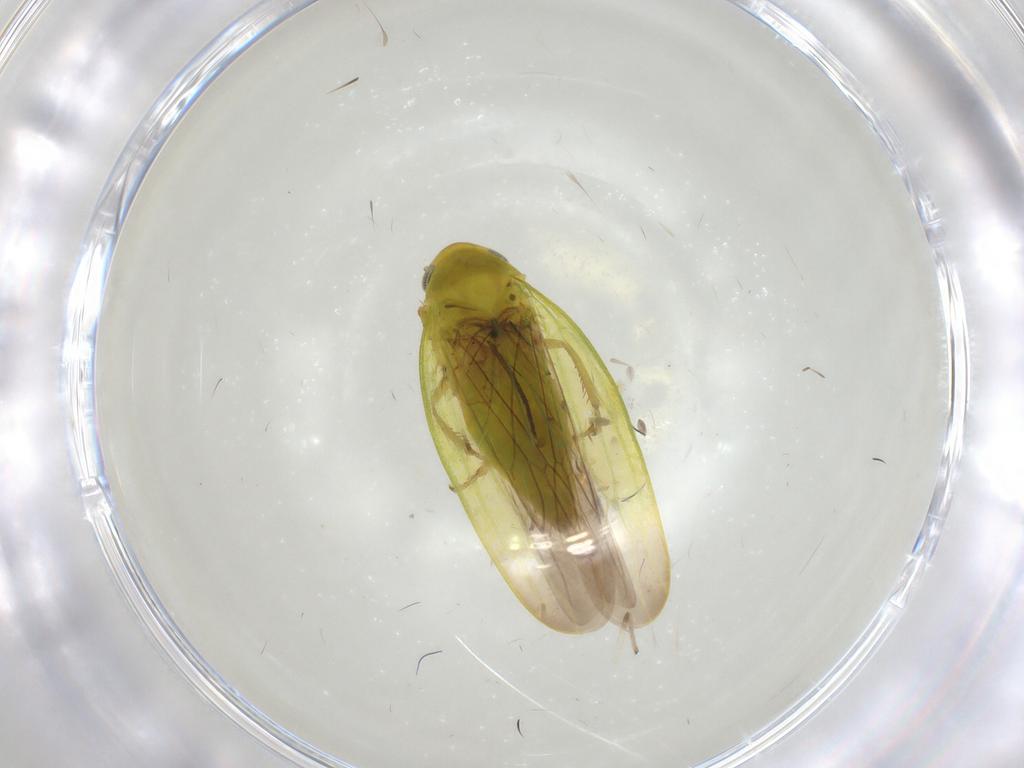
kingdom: Animalia
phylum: Arthropoda
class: Insecta
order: Hemiptera
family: Cicadellidae
